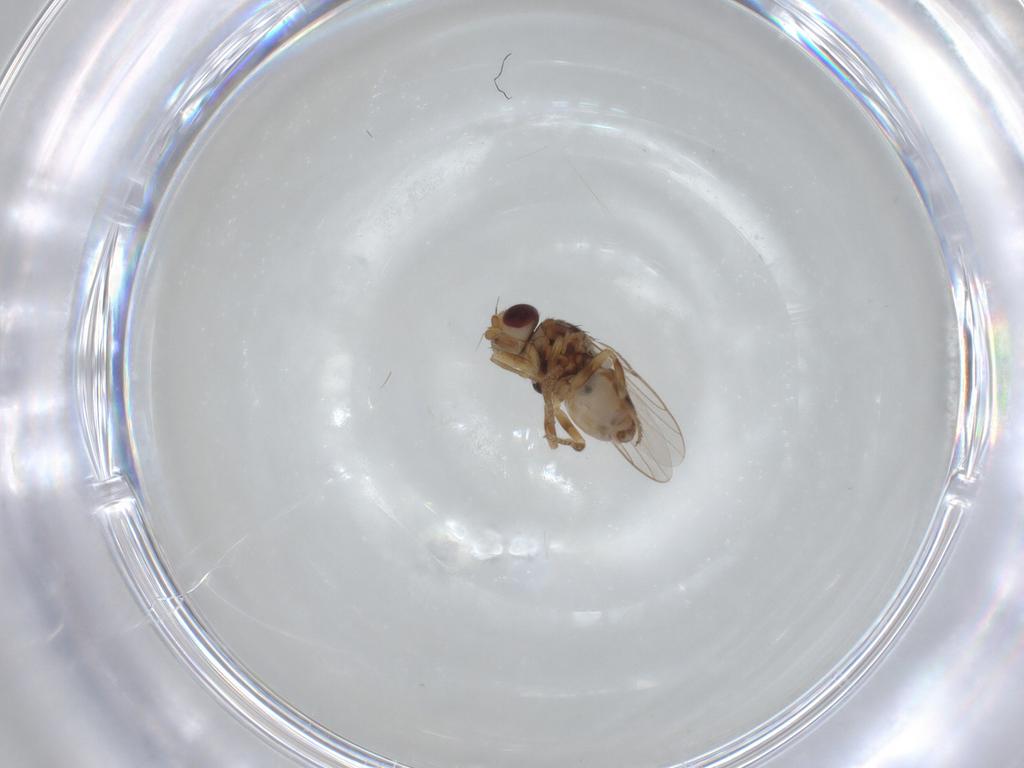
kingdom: Animalia
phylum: Arthropoda
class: Insecta
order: Diptera
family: Chloropidae
